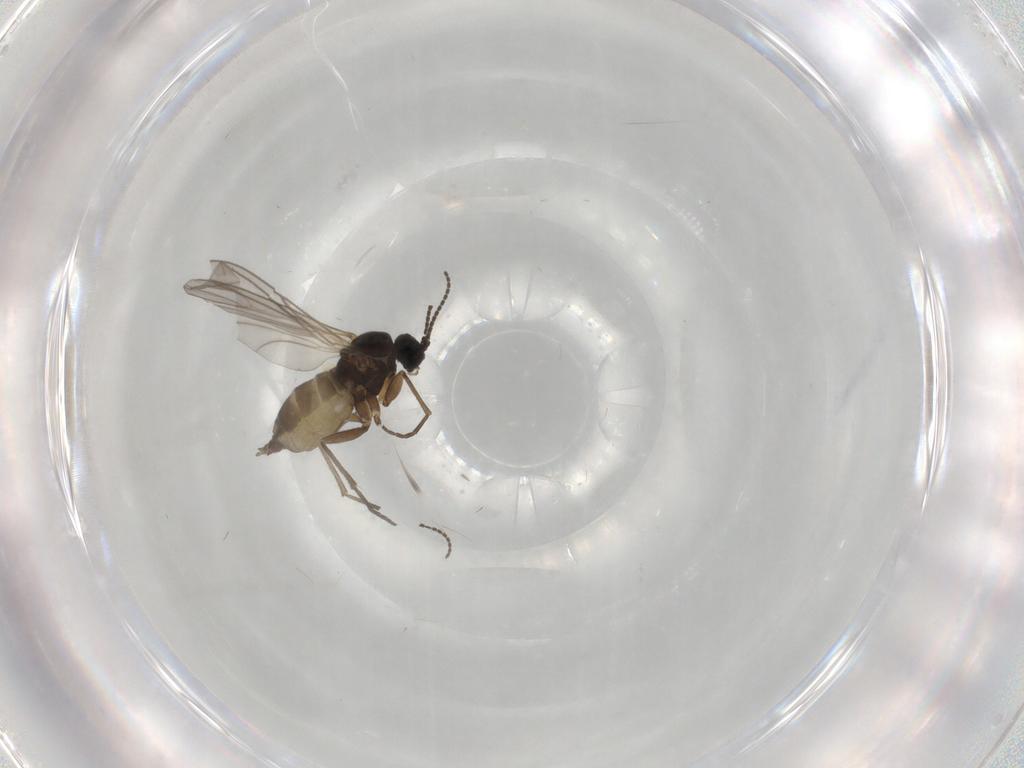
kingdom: Animalia
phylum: Arthropoda
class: Insecta
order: Diptera
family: Sciaridae
